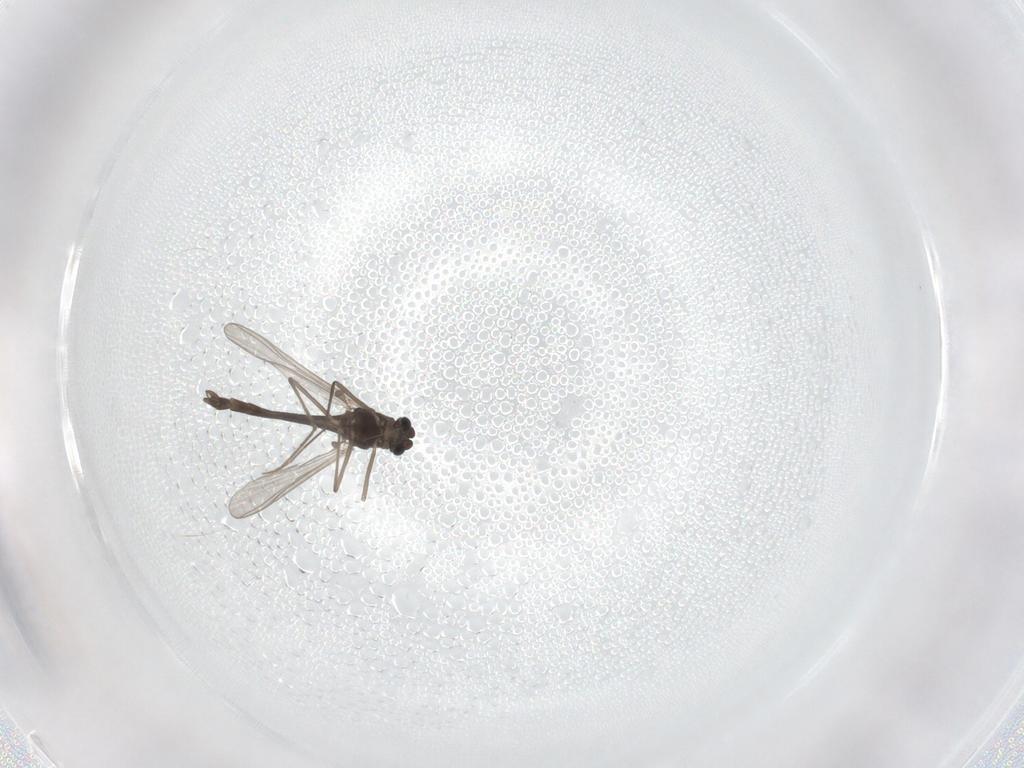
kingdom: Animalia
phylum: Arthropoda
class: Insecta
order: Diptera
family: Chironomidae
